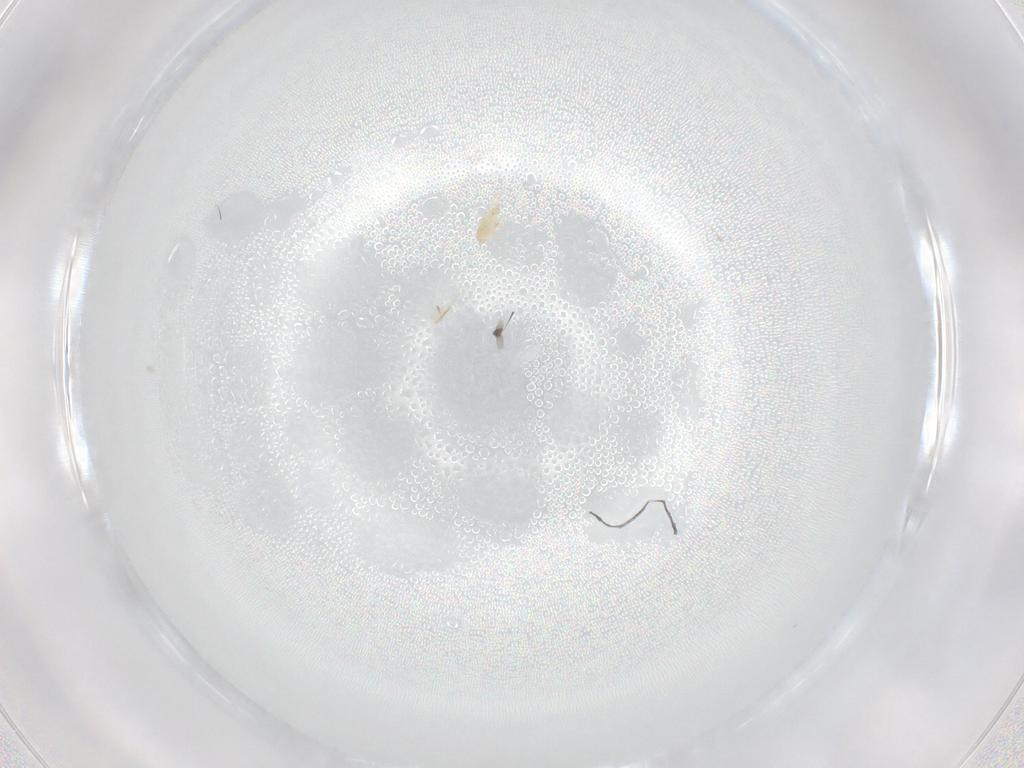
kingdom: Animalia
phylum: Arthropoda
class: Arachnida
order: Mesostigmata
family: Digamasellidae
